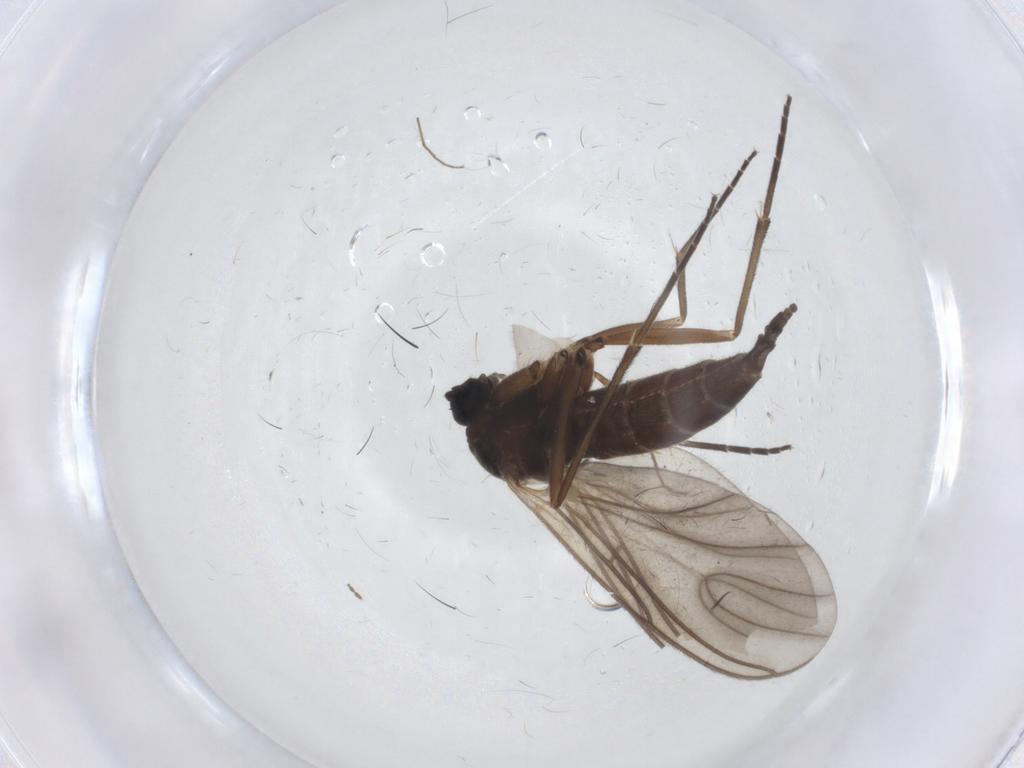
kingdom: Animalia
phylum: Arthropoda
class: Insecta
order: Diptera
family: Sciaridae
